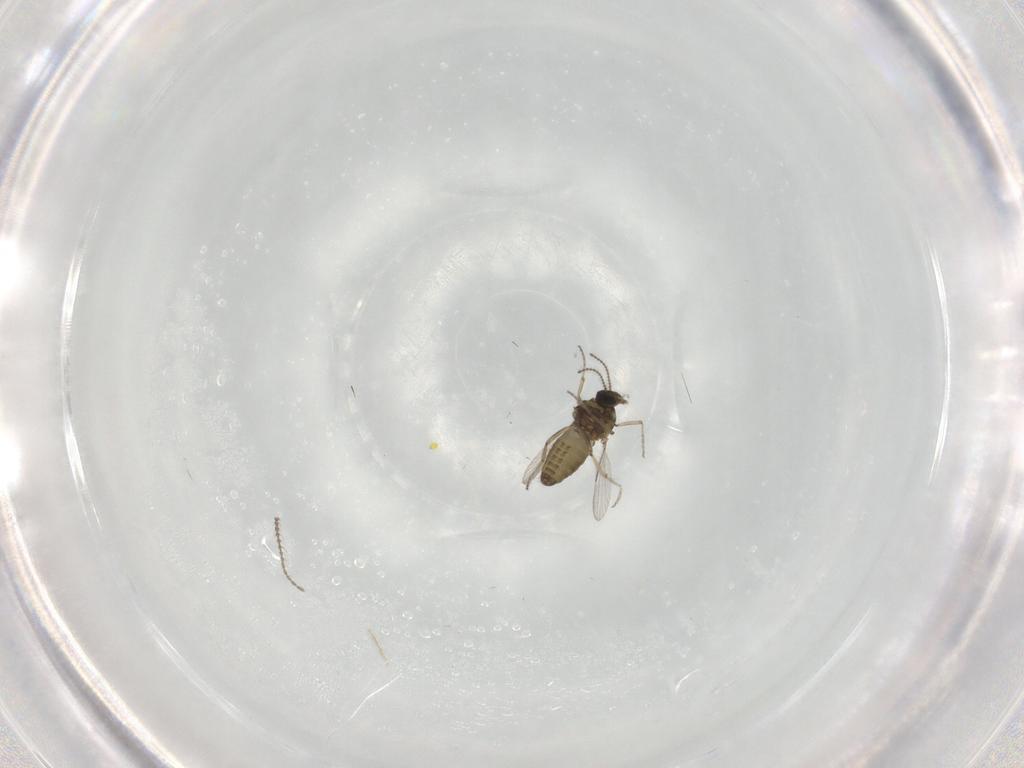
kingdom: Animalia
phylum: Arthropoda
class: Insecta
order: Diptera
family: Ceratopogonidae
